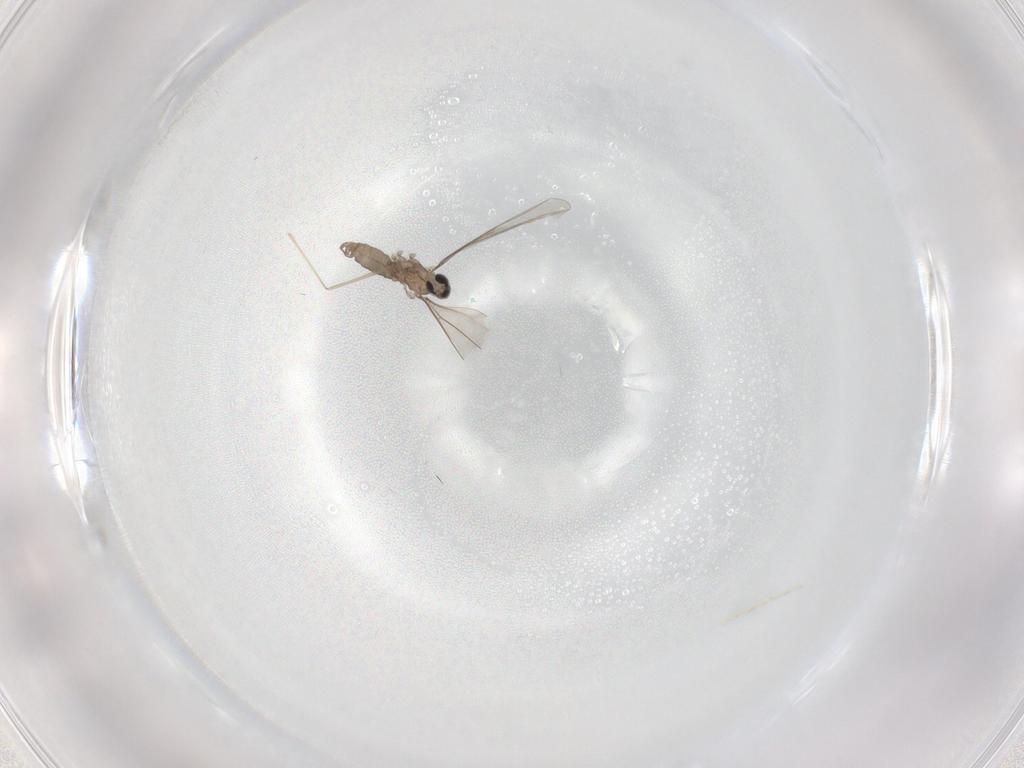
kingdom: Animalia
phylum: Arthropoda
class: Insecta
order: Diptera
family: Cecidomyiidae
